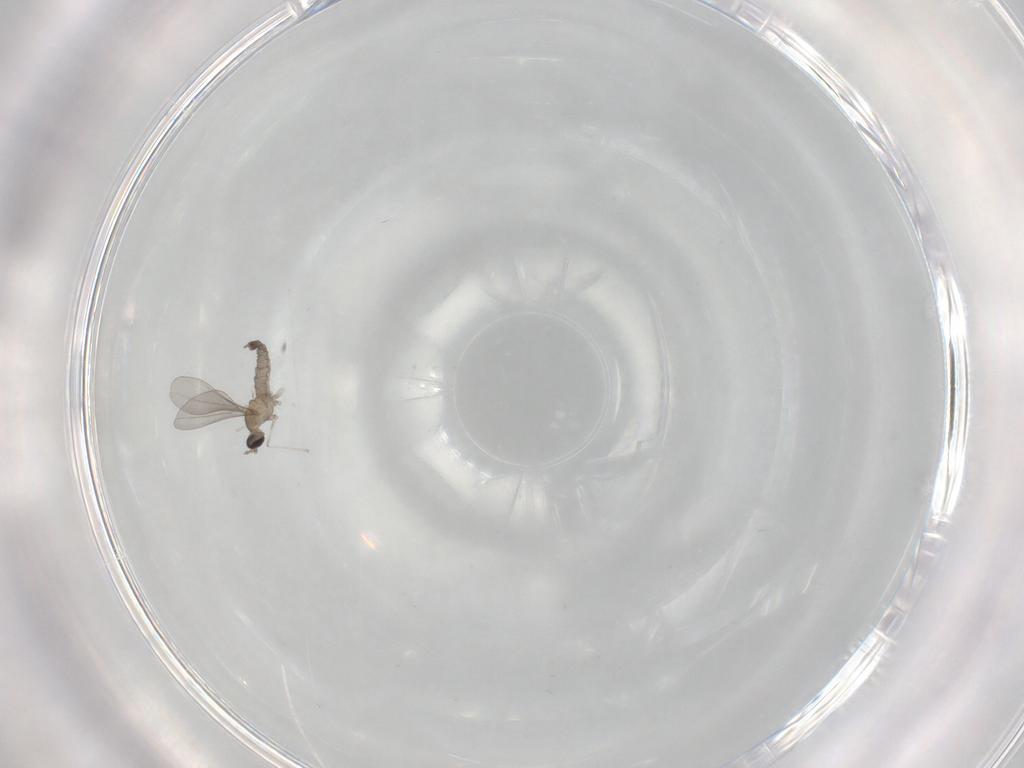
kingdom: Animalia
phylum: Arthropoda
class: Insecta
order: Diptera
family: Cecidomyiidae
